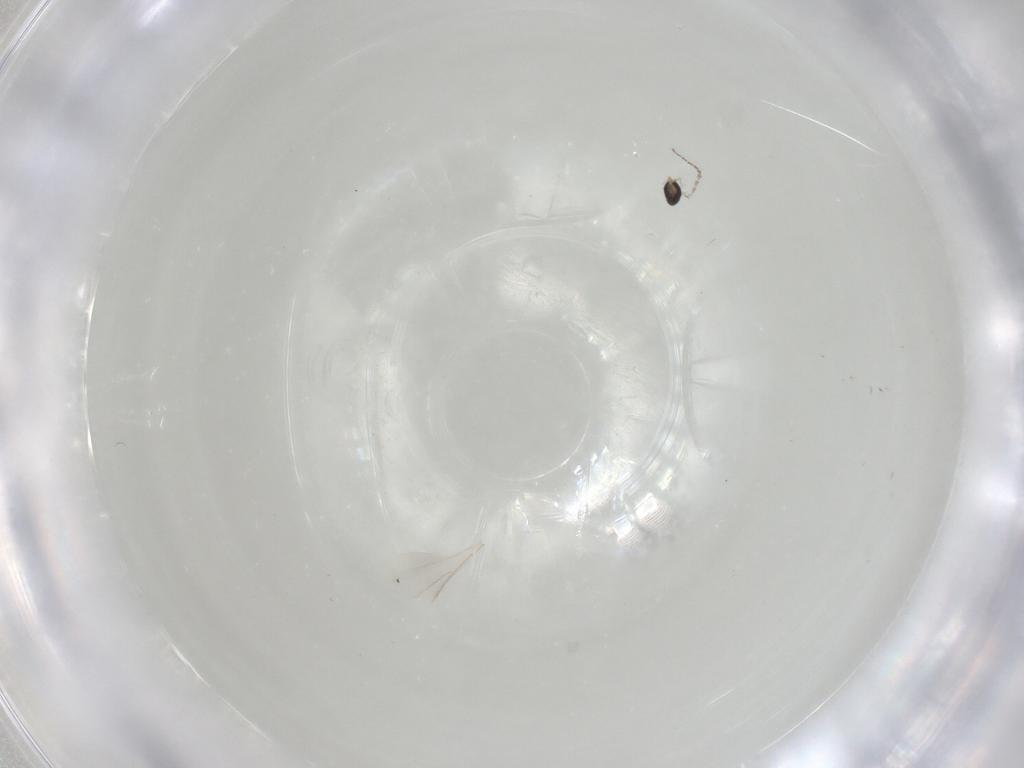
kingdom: Animalia
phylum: Arthropoda
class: Insecta
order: Diptera
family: Cecidomyiidae
